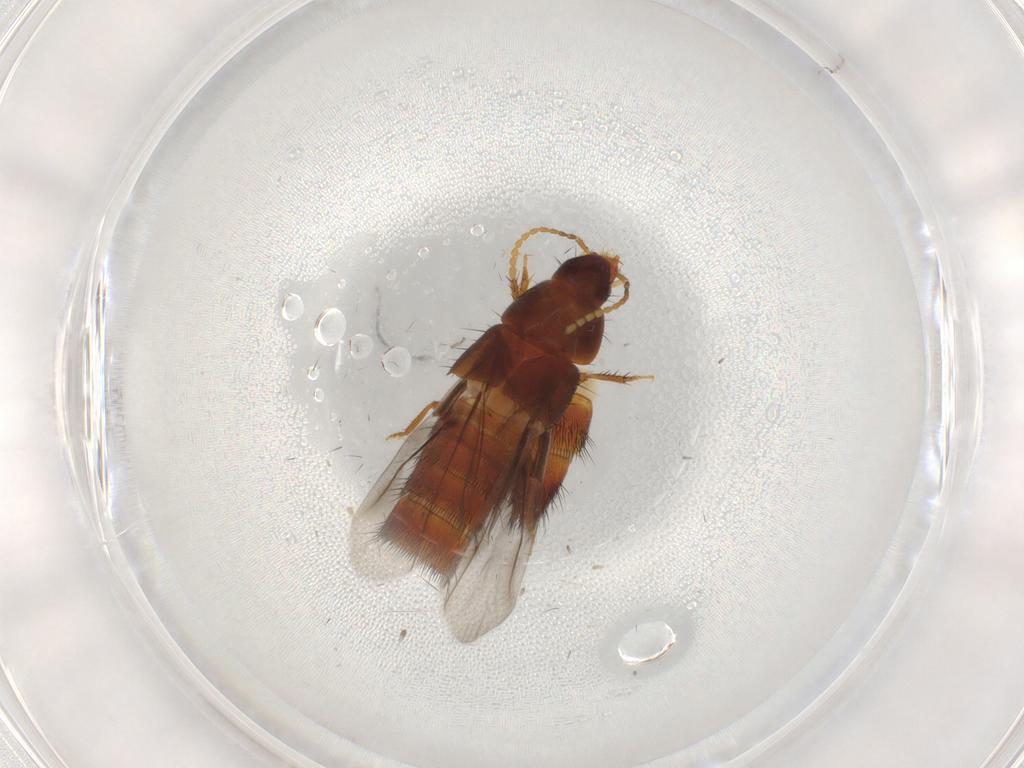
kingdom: Animalia
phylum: Arthropoda
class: Insecta
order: Coleoptera
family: Staphylinidae
